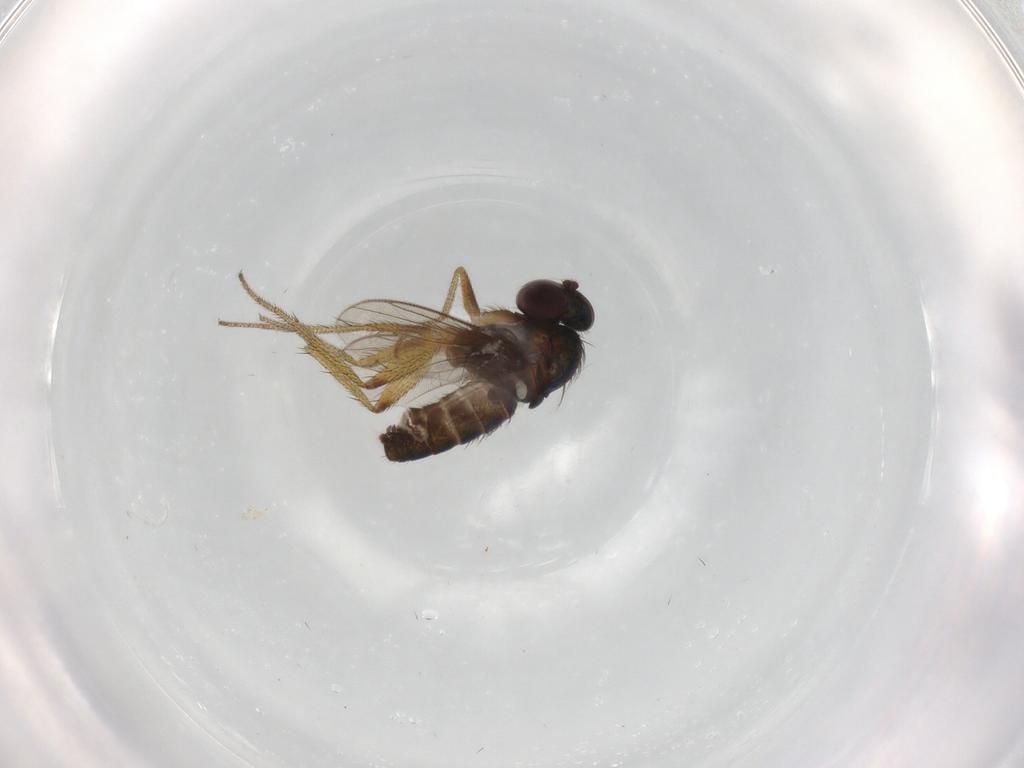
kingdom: Animalia
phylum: Arthropoda
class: Insecta
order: Diptera
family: Dolichopodidae
